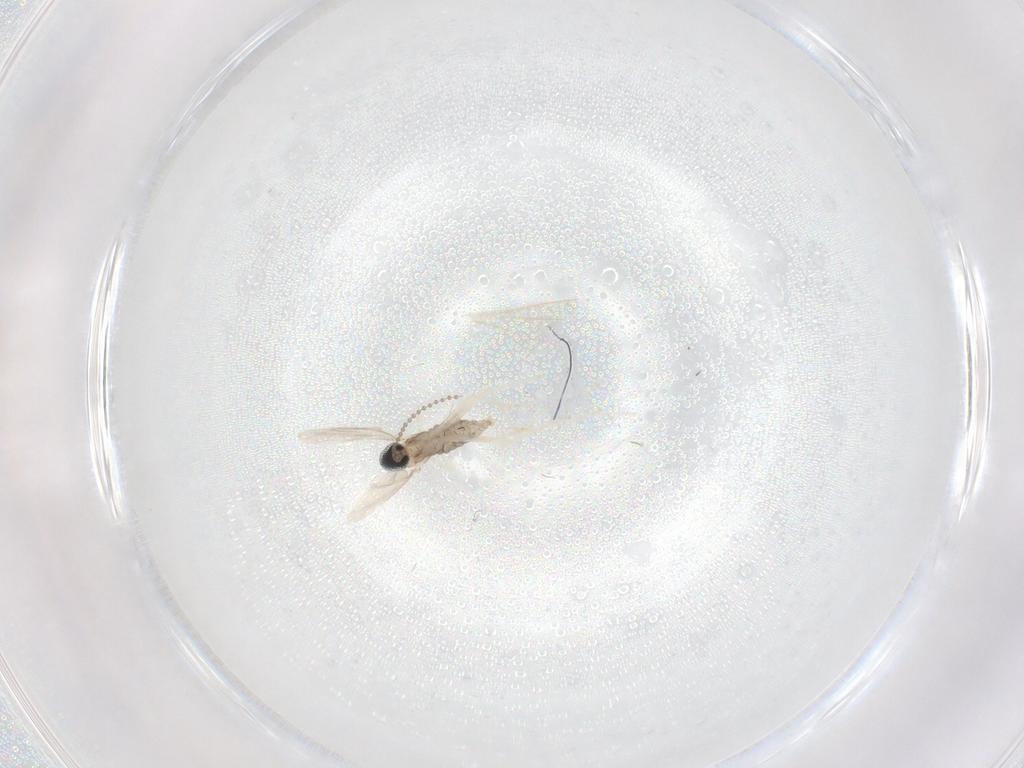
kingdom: Animalia
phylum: Arthropoda
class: Insecta
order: Diptera
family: Cecidomyiidae
